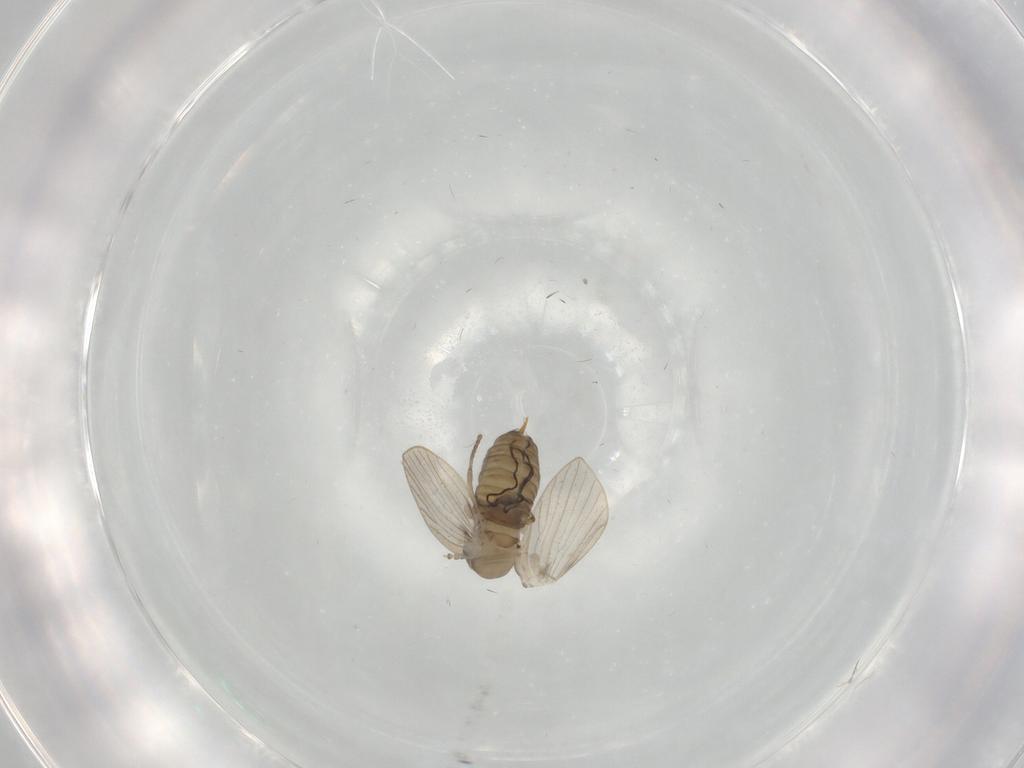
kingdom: Animalia
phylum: Arthropoda
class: Insecta
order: Diptera
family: Psychodidae
